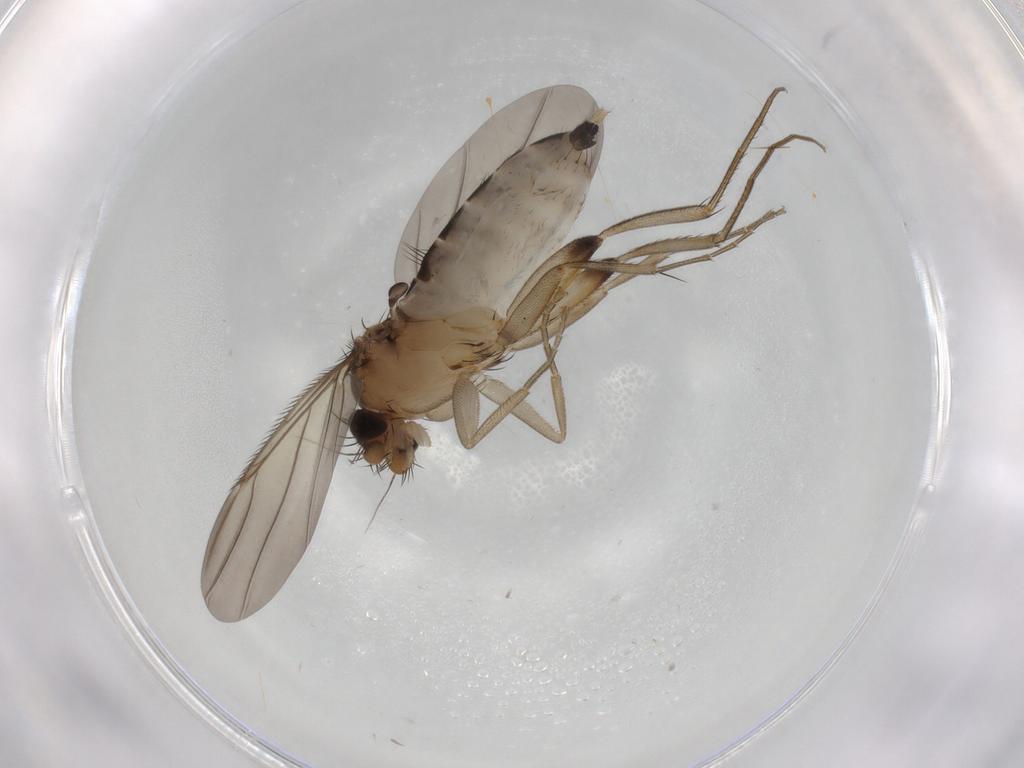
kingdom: Animalia
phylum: Arthropoda
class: Insecta
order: Diptera
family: Phoridae
